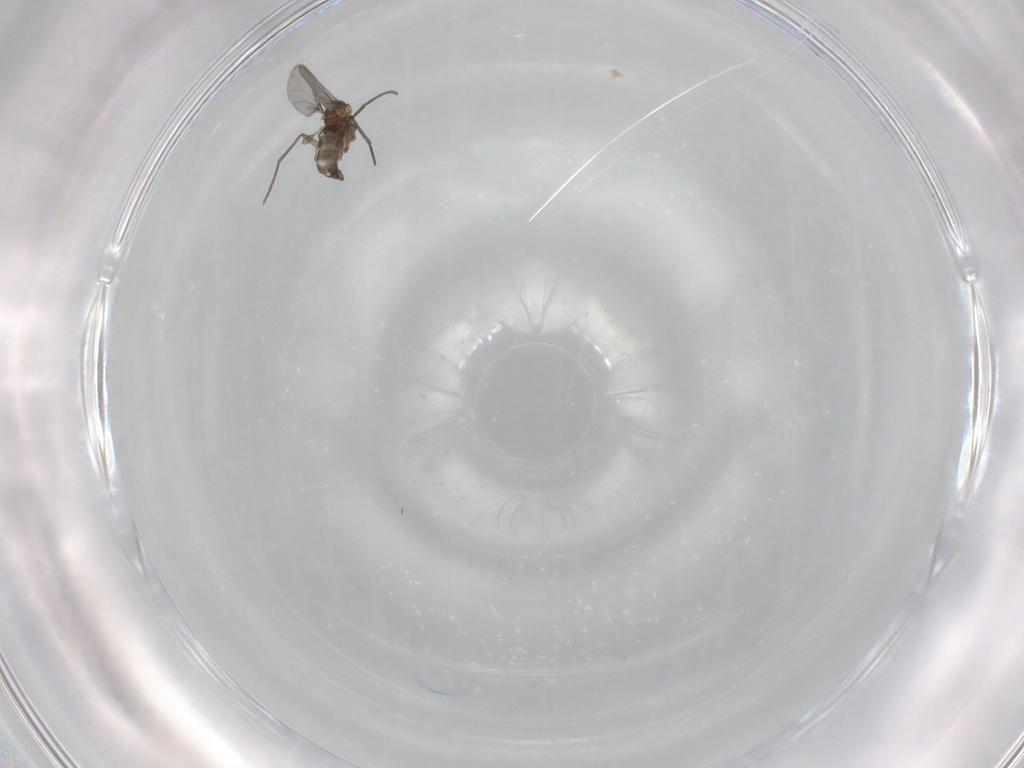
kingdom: Animalia
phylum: Arthropoda
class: Insecta
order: Diptera
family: Sciaridae
